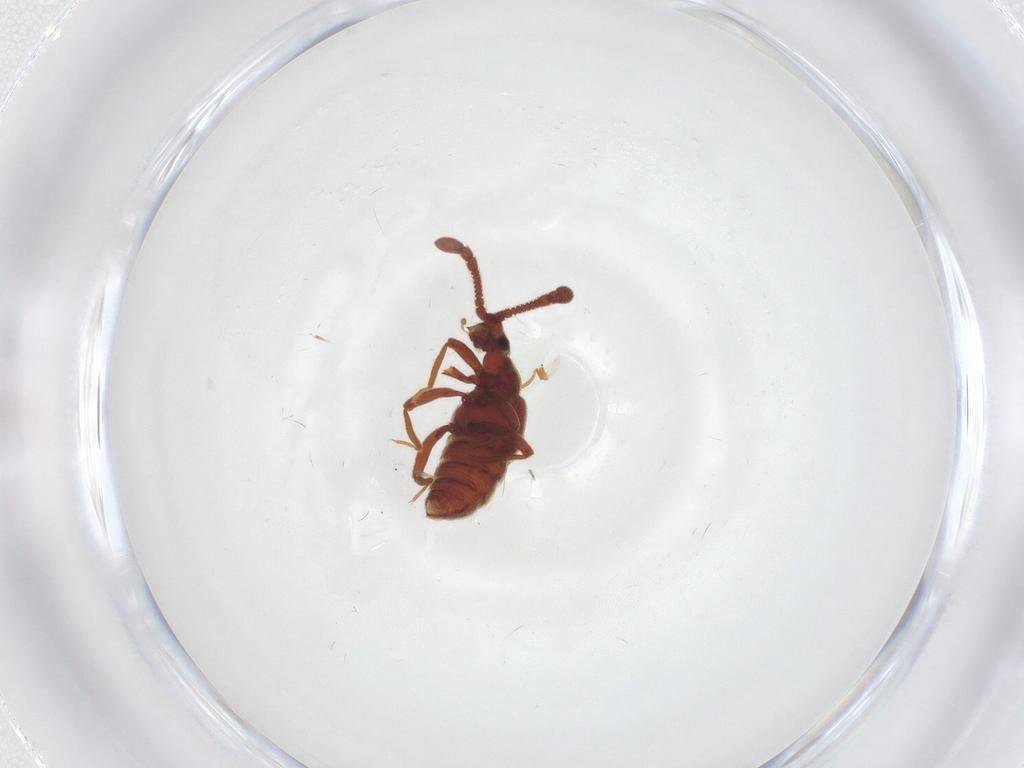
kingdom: Animalia
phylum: Arthropoda
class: Insecta
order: Coleoptera
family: Staphylinidae
